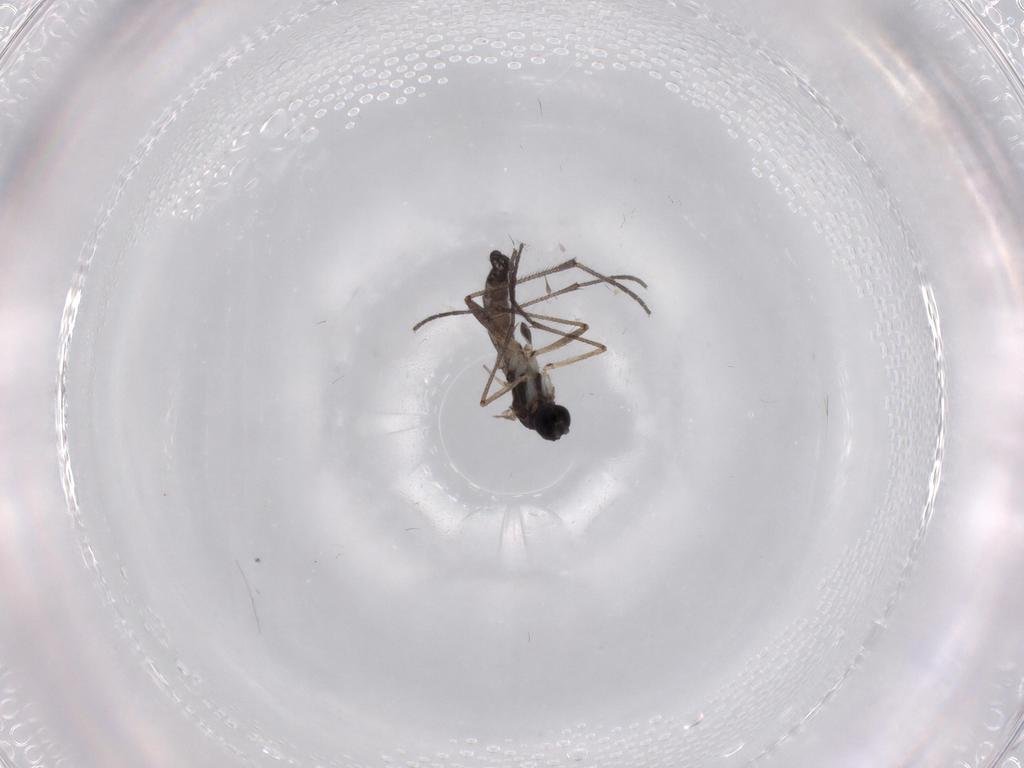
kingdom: Animalia
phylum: Arthropoda
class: Insecta
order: Diptera
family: Sciaridae
